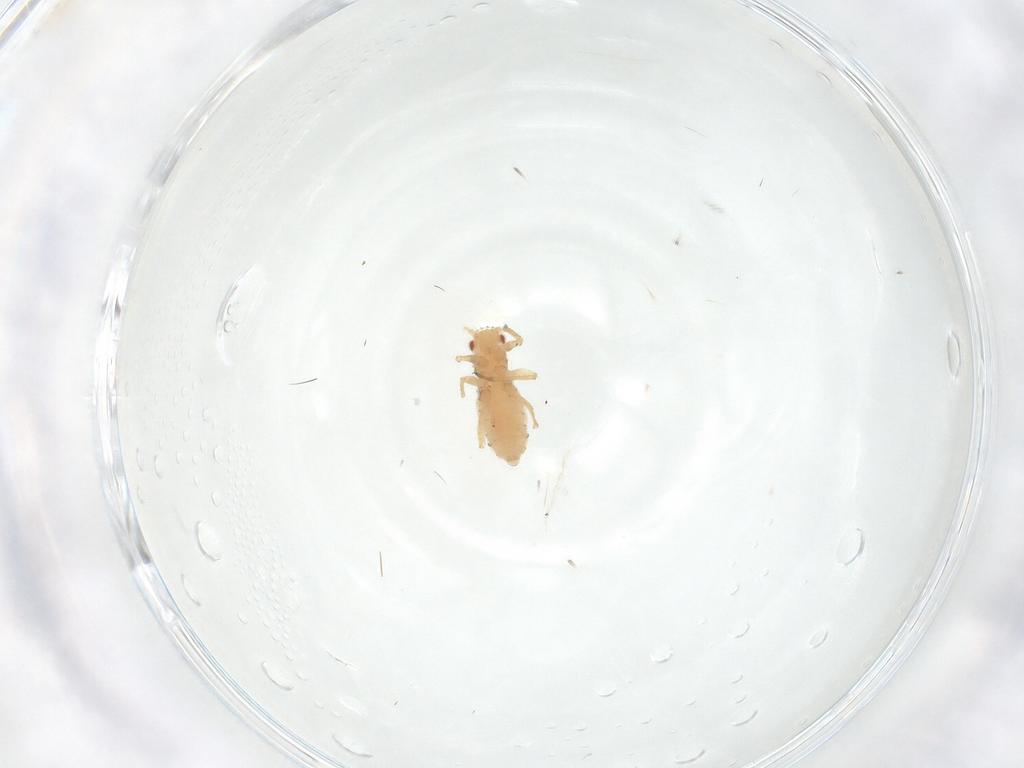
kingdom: Animalia
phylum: Arthropoda
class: Insecta
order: Hemiptera
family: Aphididae
